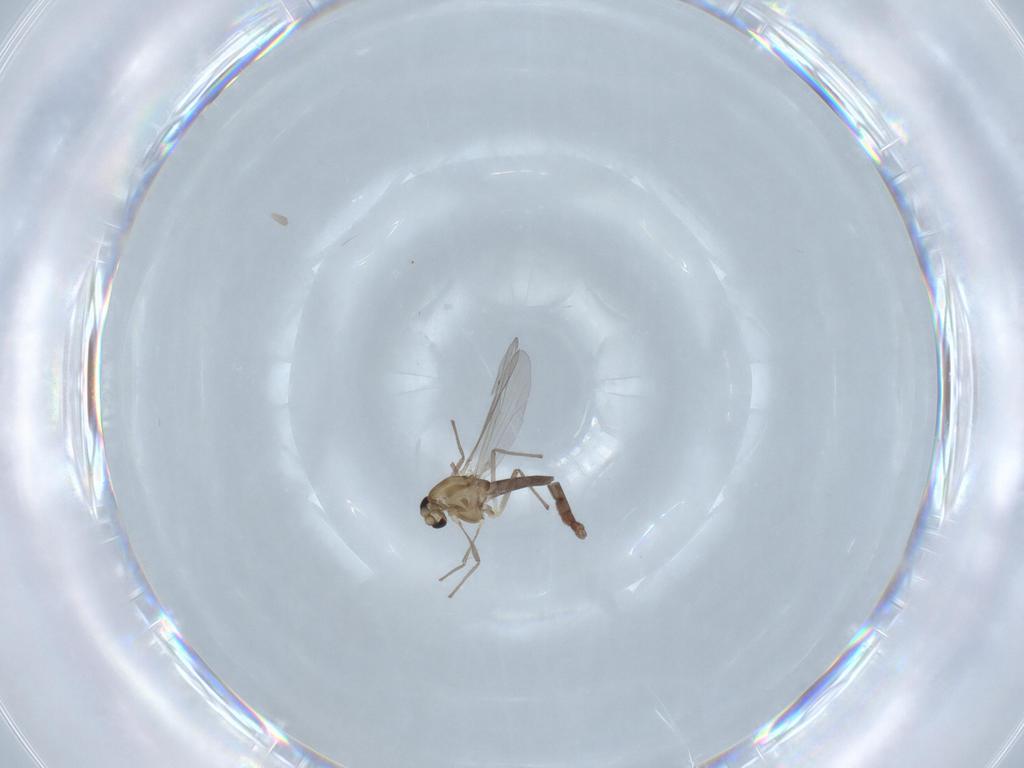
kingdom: Animalia
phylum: Arthropoda
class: Insecta
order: Diptera
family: Chironomidae
